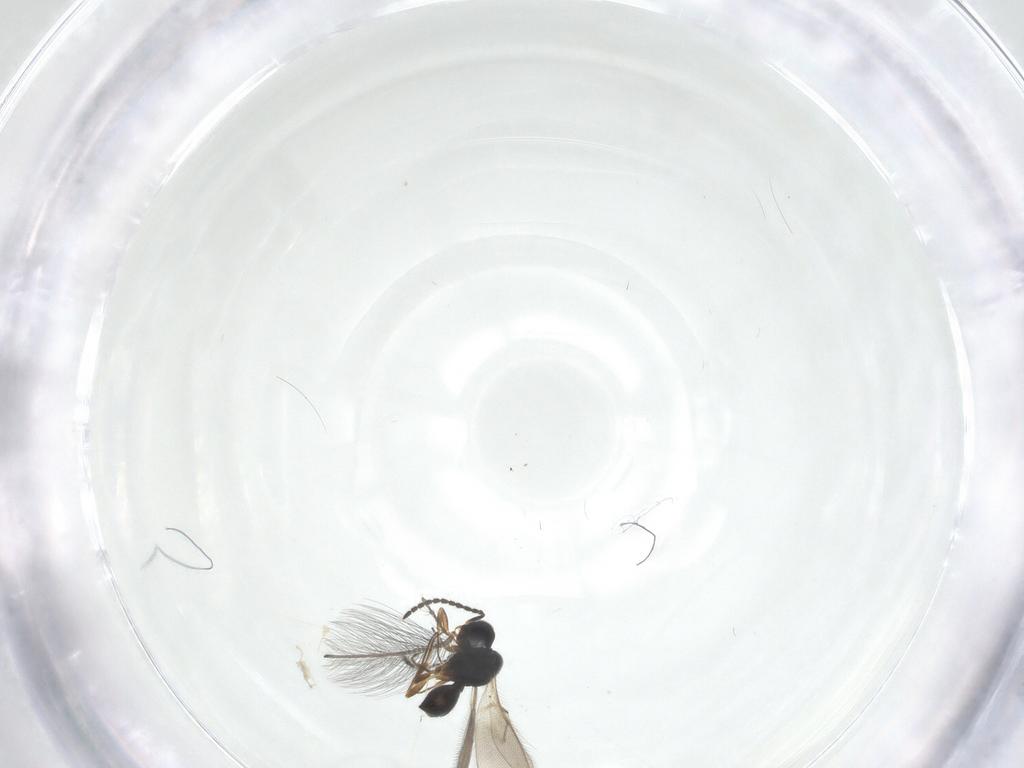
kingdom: Animalia
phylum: Arthropoda
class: Insecta
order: Hymenoptera
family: Scelionidae
